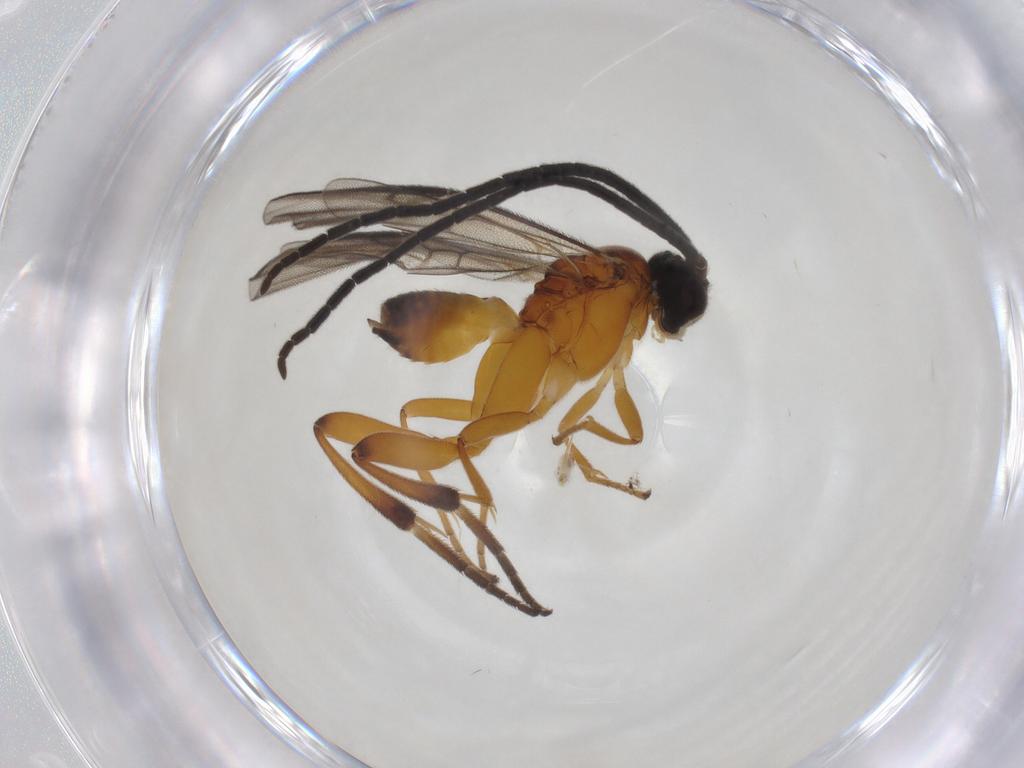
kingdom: Animalia
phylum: Arthropoda
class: Insecta
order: Hymenoptera
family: Braconidae
